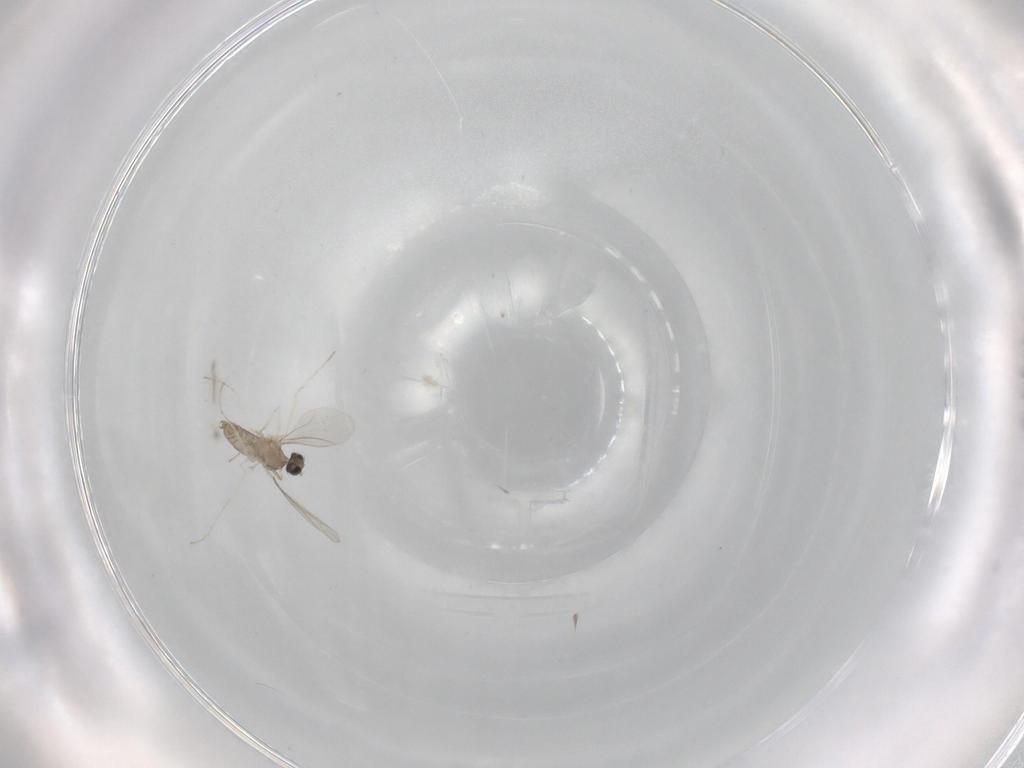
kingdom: Animalia
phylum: Arthropoda
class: Insecta
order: Diptera
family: Cecidomyiidae
